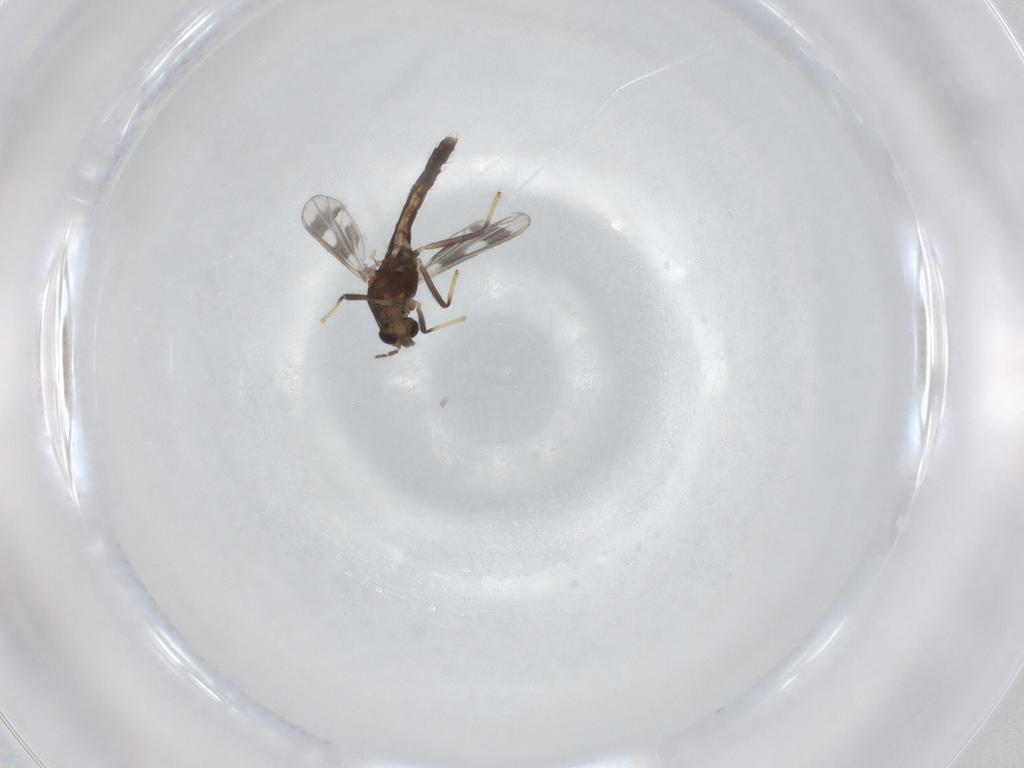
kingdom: Animalia
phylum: Arthropoda
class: Insecta
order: Diptera
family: Chironomidae
